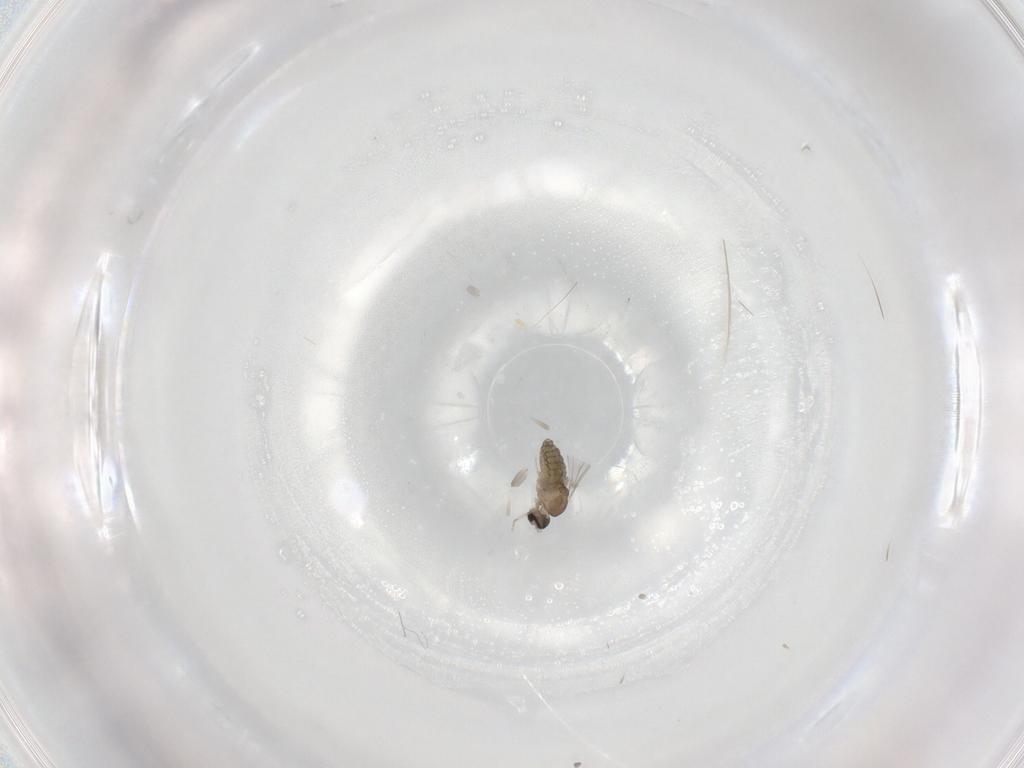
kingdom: Animalia
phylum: Arthropoda
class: Insecta
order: Diptera
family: Cecidomyiidae
